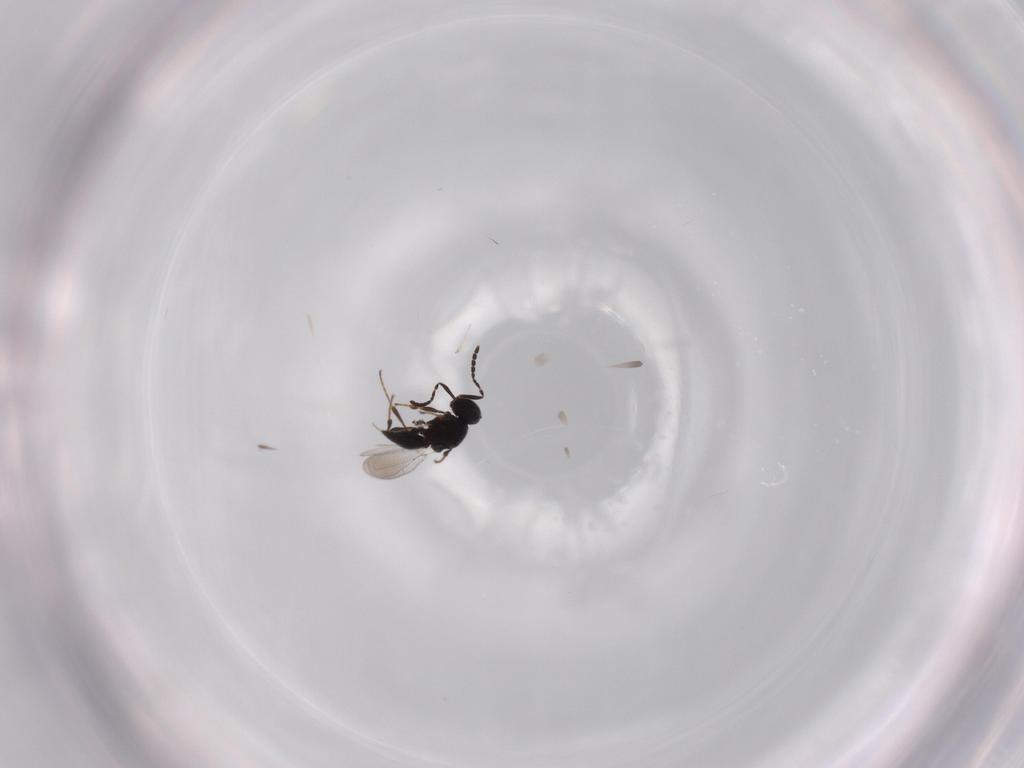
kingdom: Animalia
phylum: Arthropoda
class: Insecta
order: Diptera
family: Mythicomyiidae
